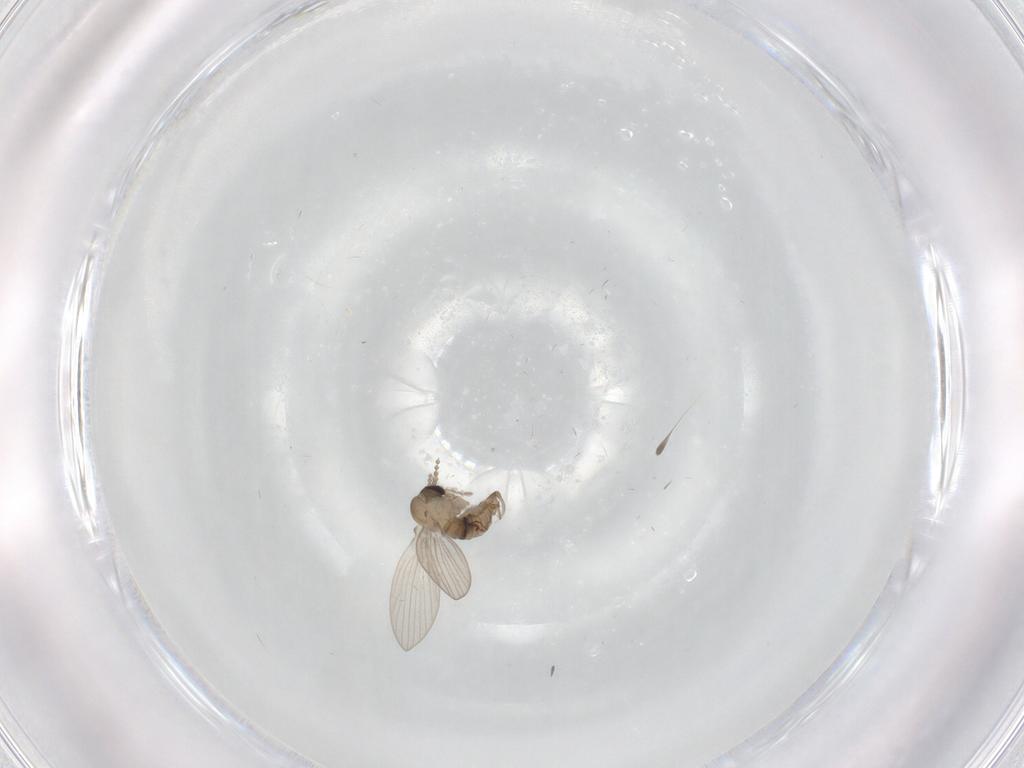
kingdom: Animalia
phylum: Arthropoda
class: Insecta
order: Diptera
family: Psychodidae
